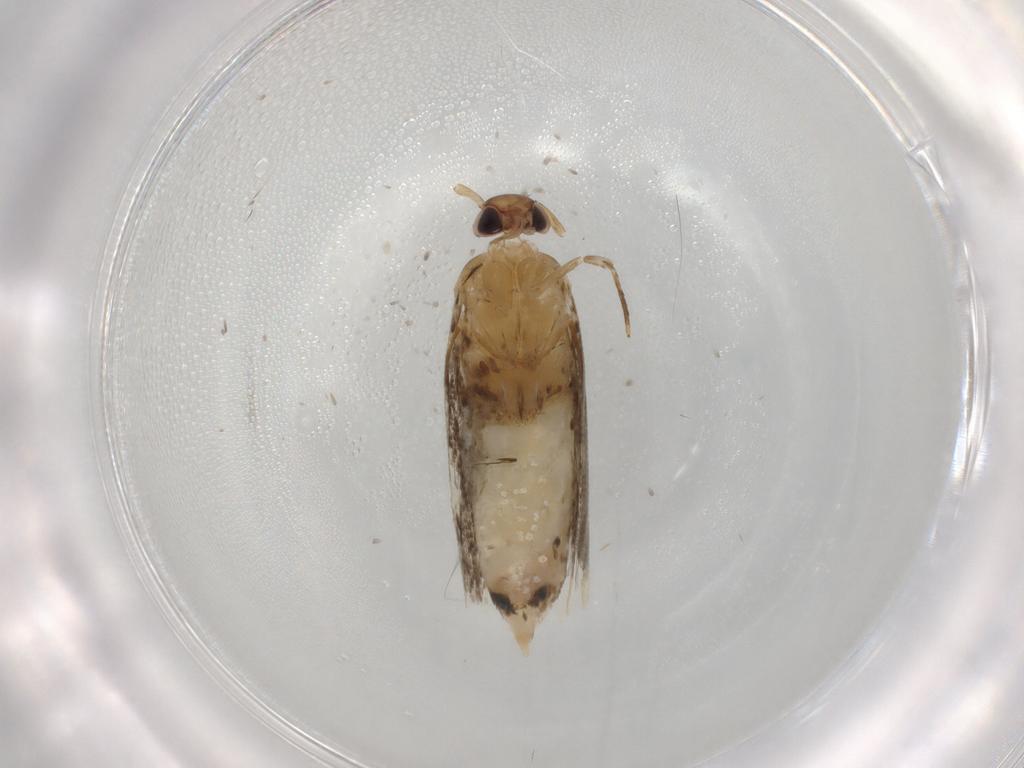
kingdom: Animalia
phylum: Arthropoda
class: Insecta
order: Lepidoptera
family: Cosmopterigidae
